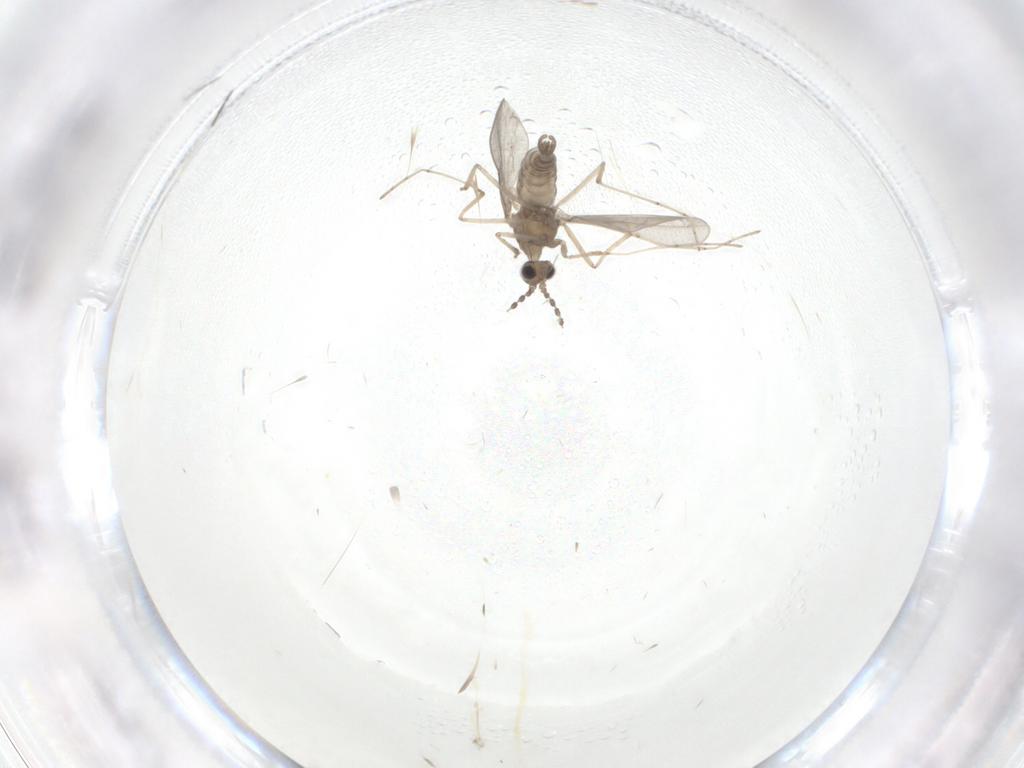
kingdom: Animalia
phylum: Arthropoda
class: Insecta
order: Diptera
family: Cecidomyiidae
